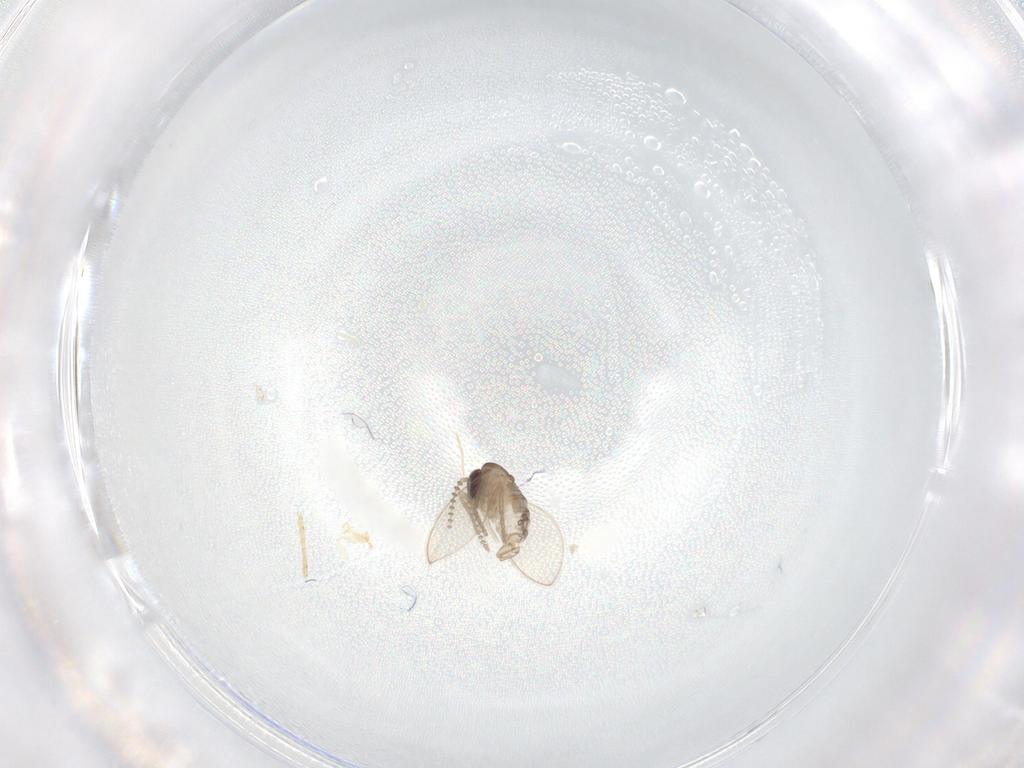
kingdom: Animalia
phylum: Arthropoda
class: Insecta
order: Diptera
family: Psychodidae
